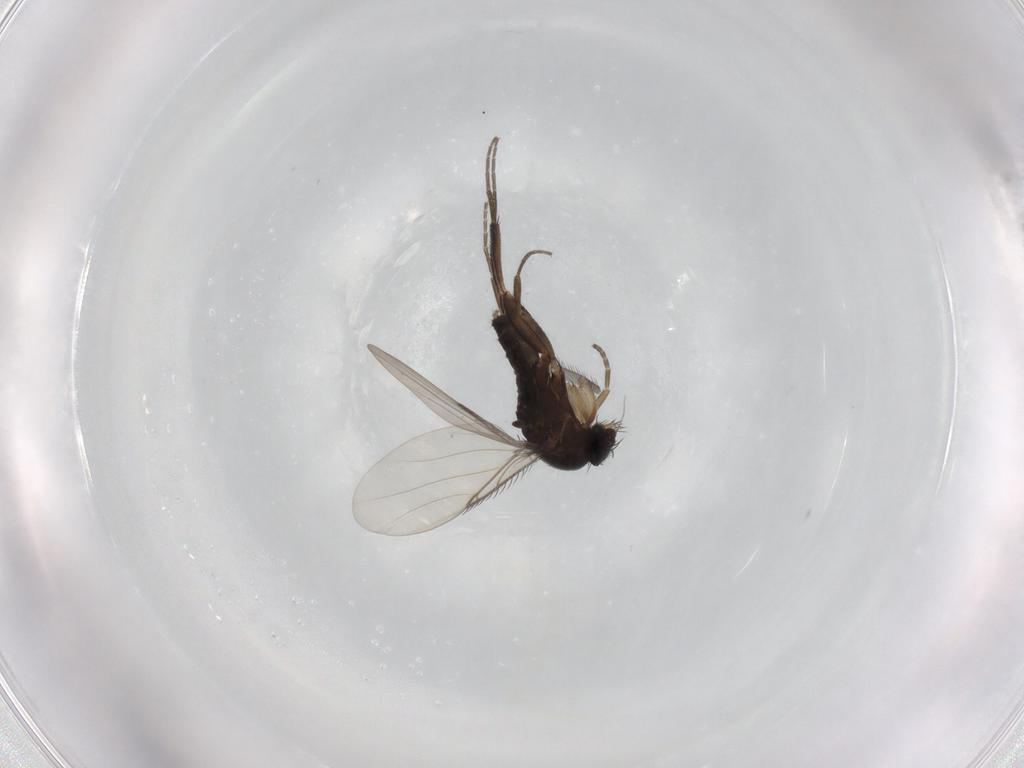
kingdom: Animalia
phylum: Arthropoda
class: Insecta
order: Diptera
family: Phoridae
